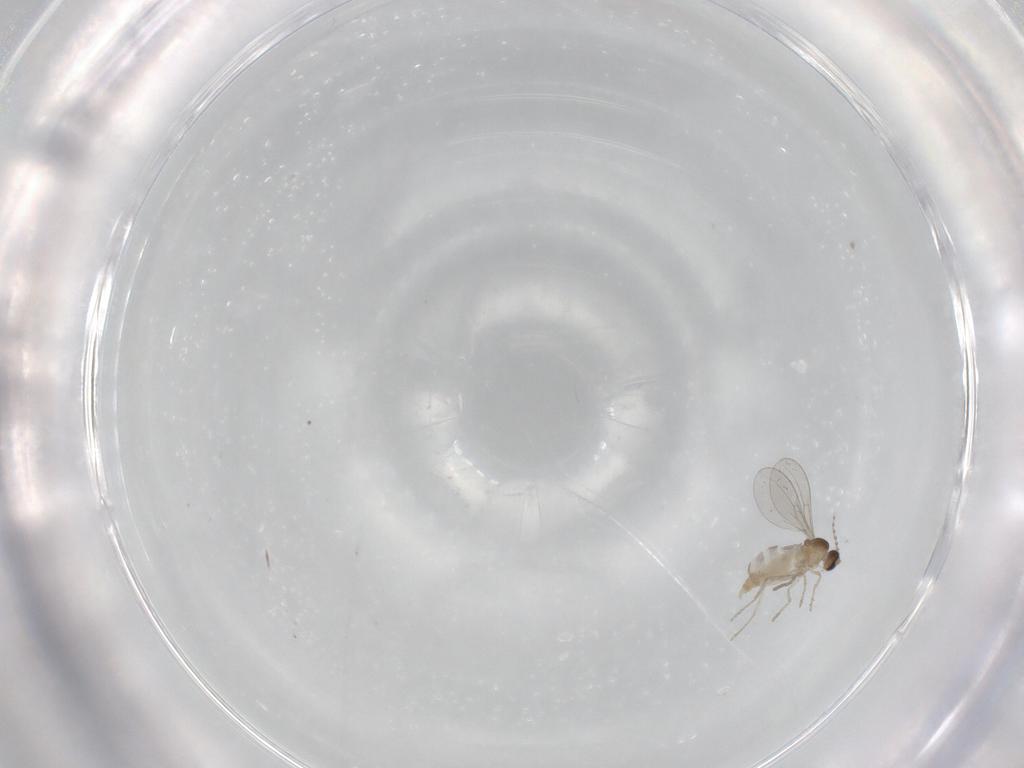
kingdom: Animalia
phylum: Arthropoda
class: Insecta
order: Diptera
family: Cecidomyiidae
